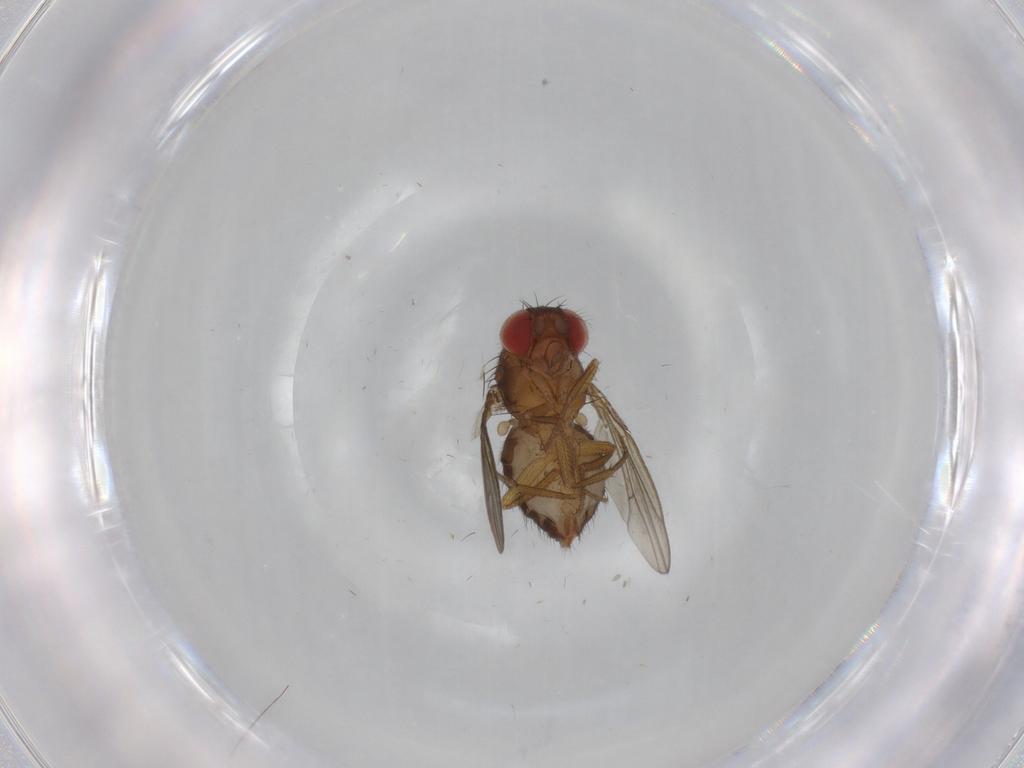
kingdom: Animalia
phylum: Arthropoda
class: Insecta
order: Diptera
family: Drosophilidae
